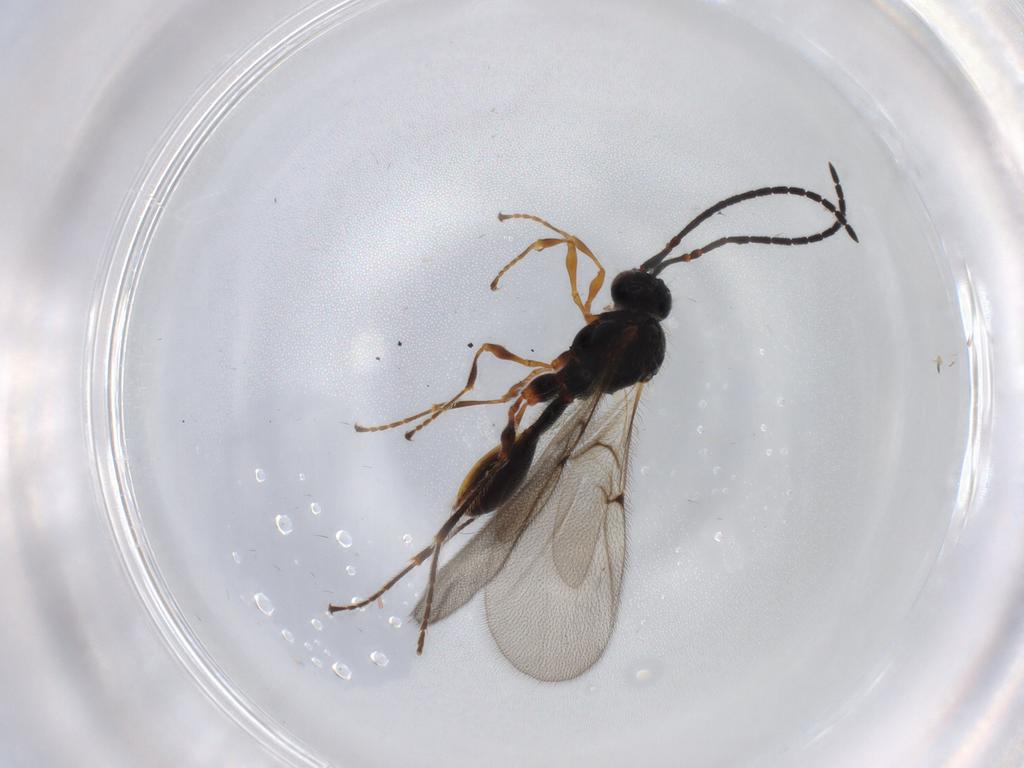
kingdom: Animalia
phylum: Arthropoda
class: Insecta
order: Hymenoptera
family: Diapriidae
